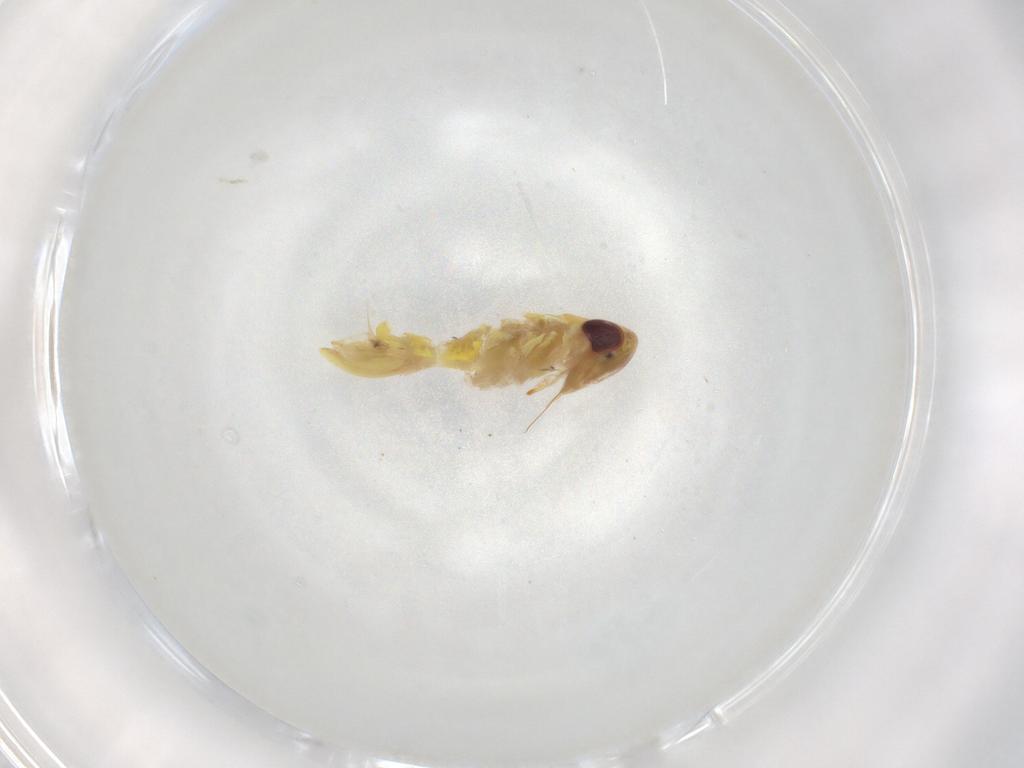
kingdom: Animalia
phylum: Arthropoda
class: Insecta
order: Hemiptera
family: Cicadellidae
